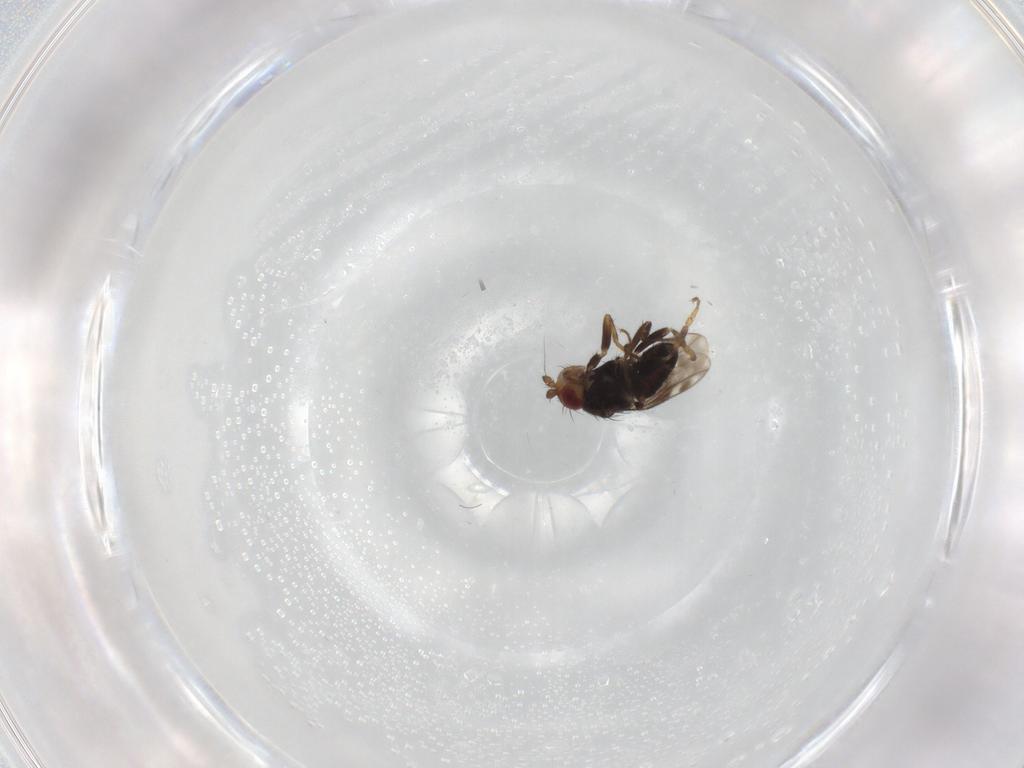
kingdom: Animalia
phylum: Arthropoda
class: Insecta
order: Diptera
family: Sphaeroceridae
